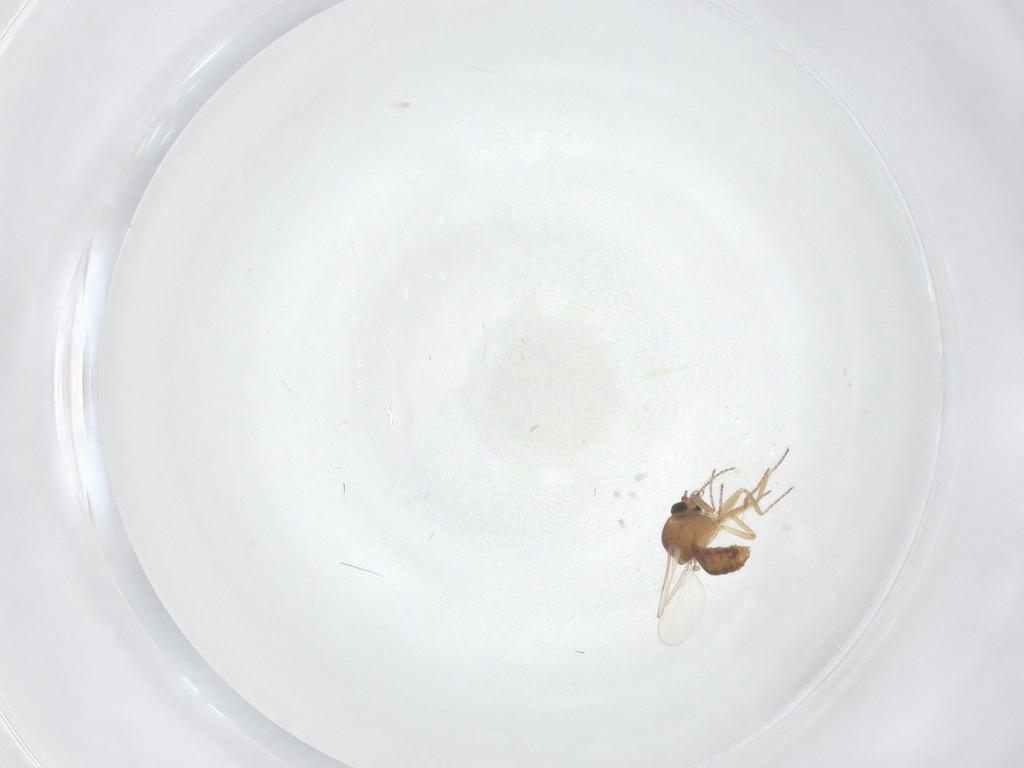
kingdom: Animalia
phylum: Arthropoda
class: Insecta
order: Diptera
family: Ceratopogonidae
